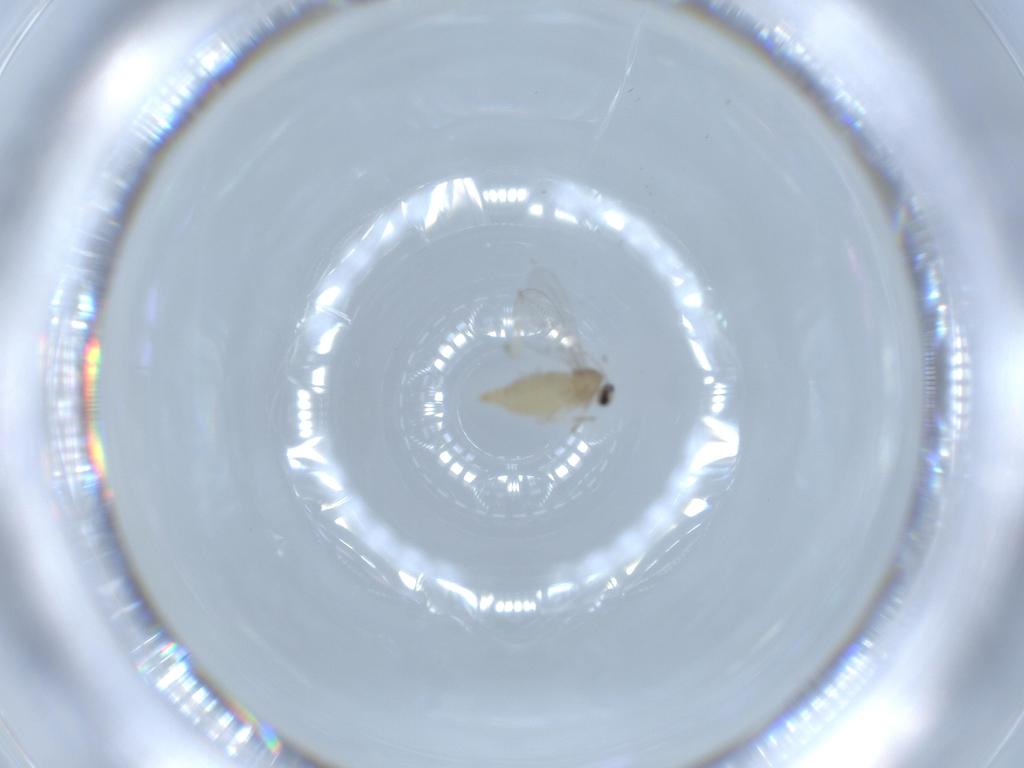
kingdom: Animalia
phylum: Arthropoda
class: Insecta
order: Diptera
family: Cecidomyiidae
